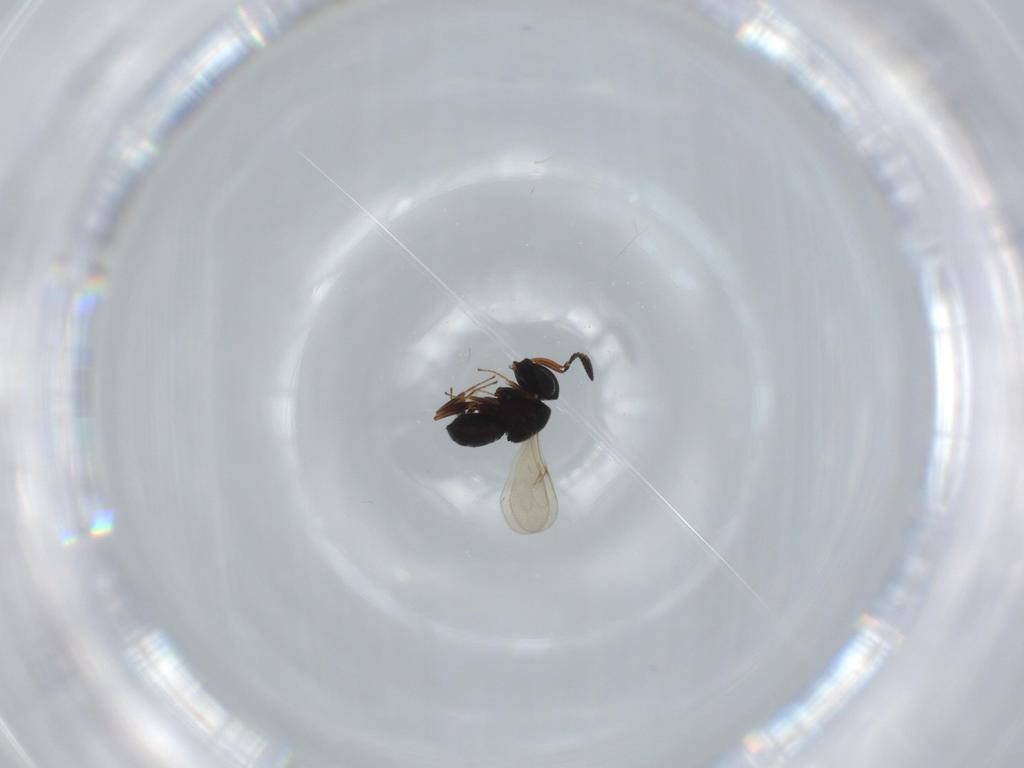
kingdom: Animalia
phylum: Arthropoda
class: Insecta
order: Hymenoptera
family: Scelionidae
